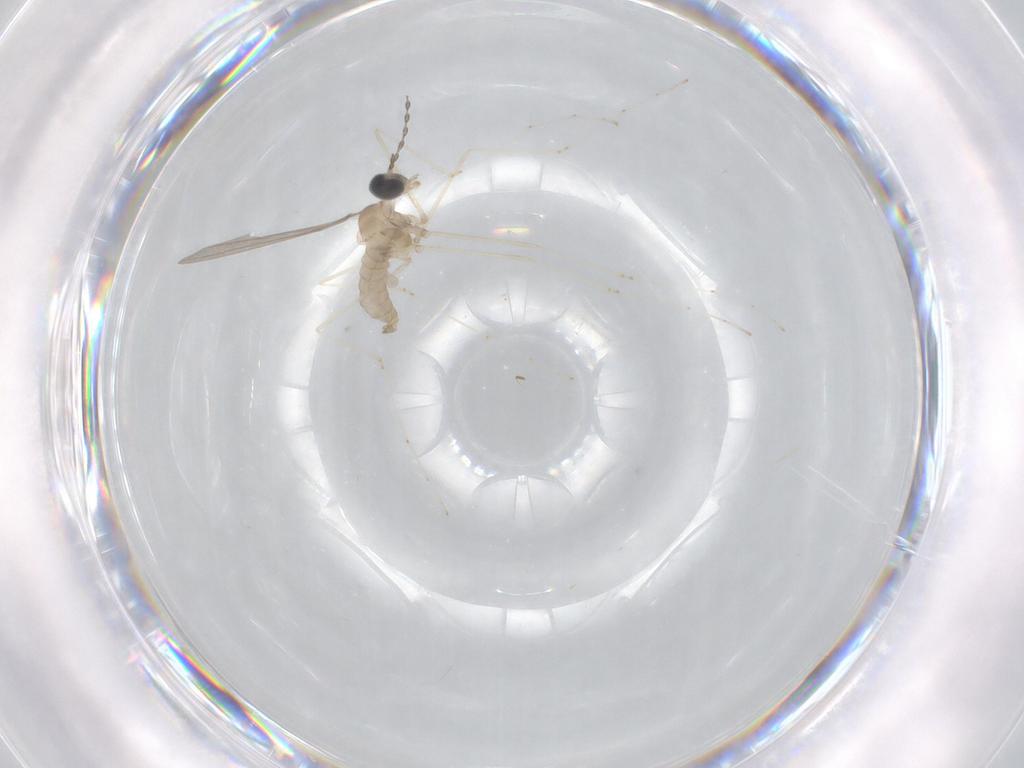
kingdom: Animalia
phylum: Arthropoda
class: Insecta
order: Diptera
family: Cecidomyiidae
